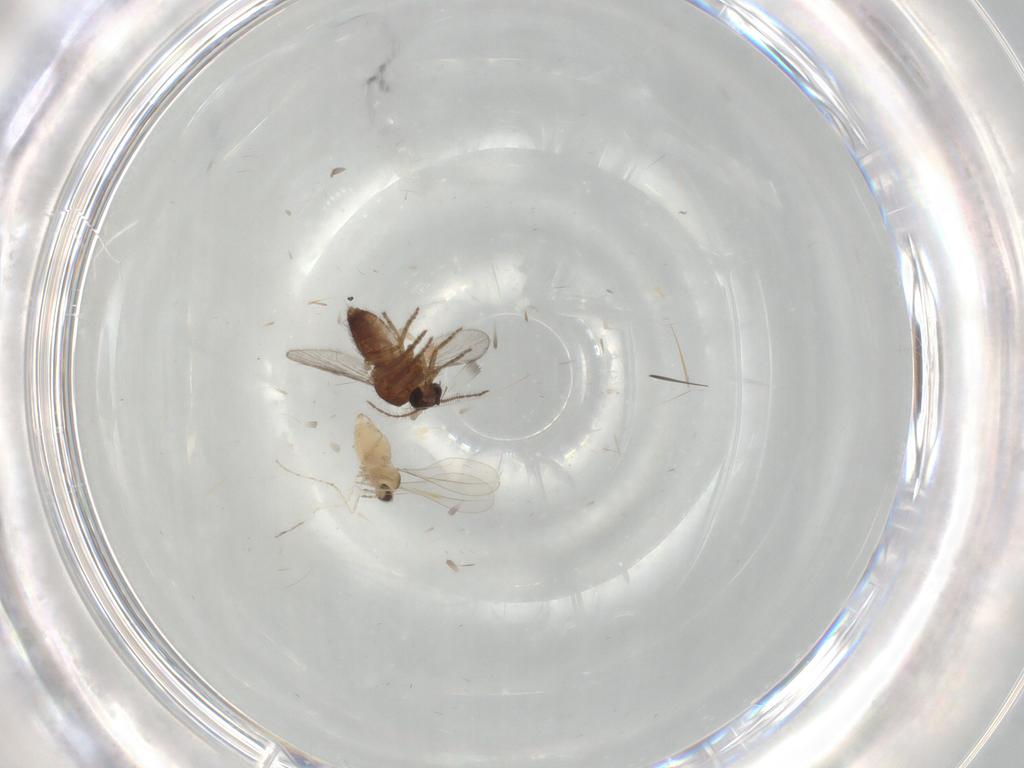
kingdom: Animalia
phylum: Arthropoda
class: Insecta
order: Diptera
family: Ceratopogonidae
